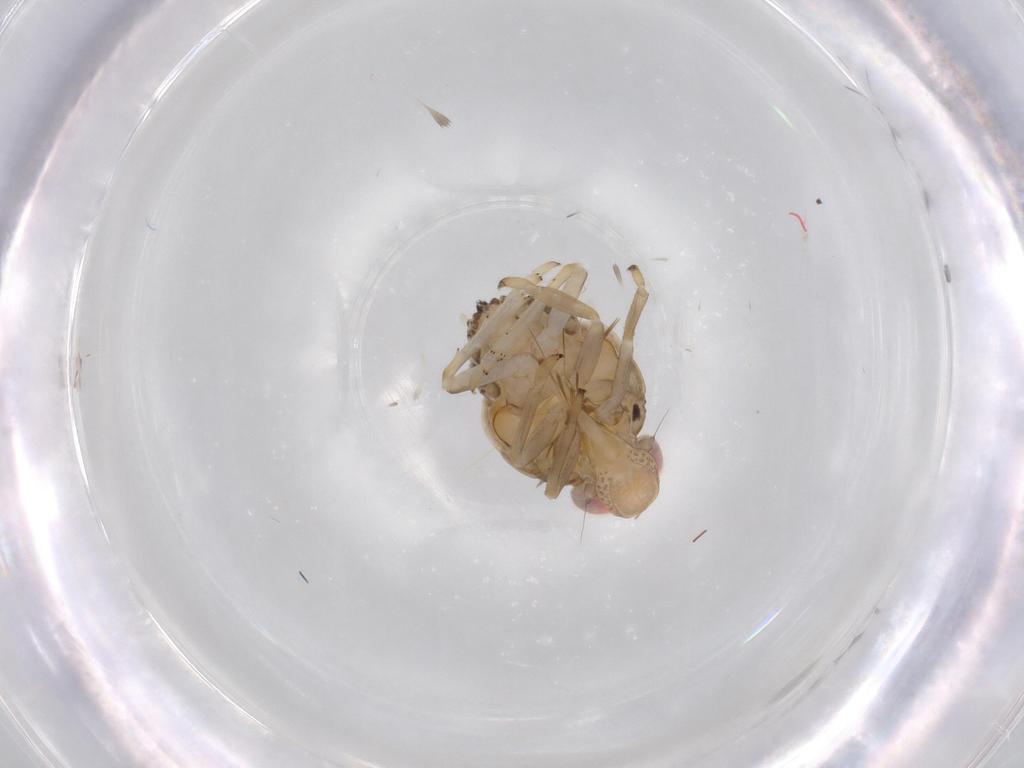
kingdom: Animalia
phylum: Arthropoda
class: Insecta
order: Hemiptera
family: Issidae
